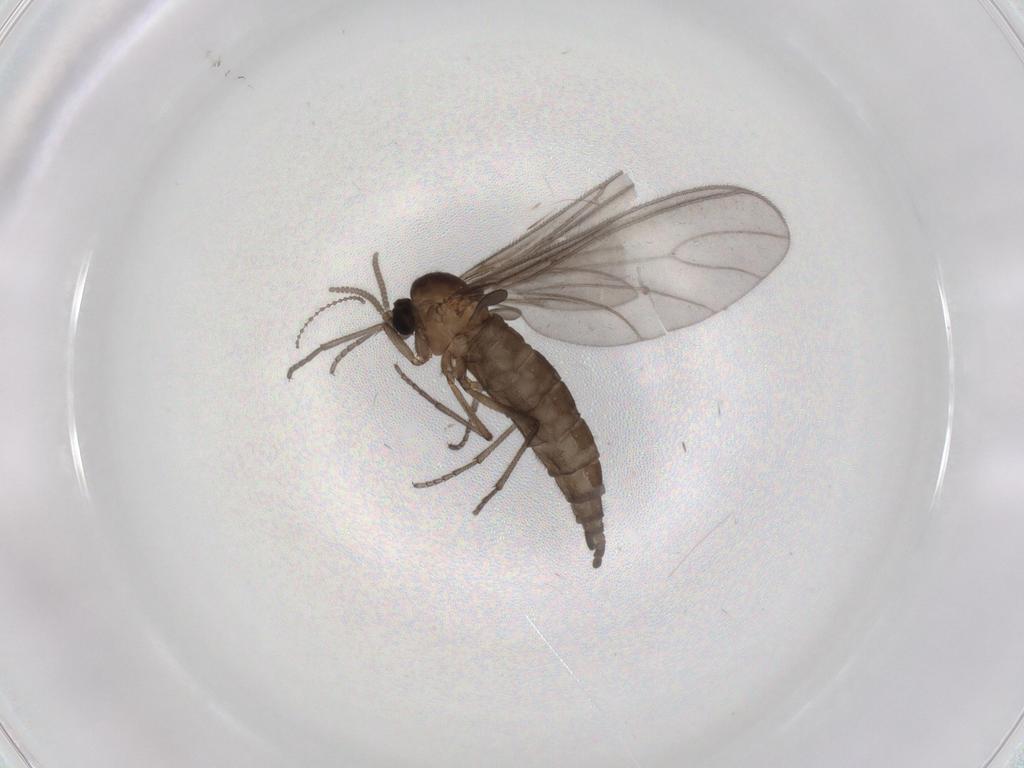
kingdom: Animalia
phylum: Arthropoda
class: Insecta
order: Diptera
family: Sciaridae
